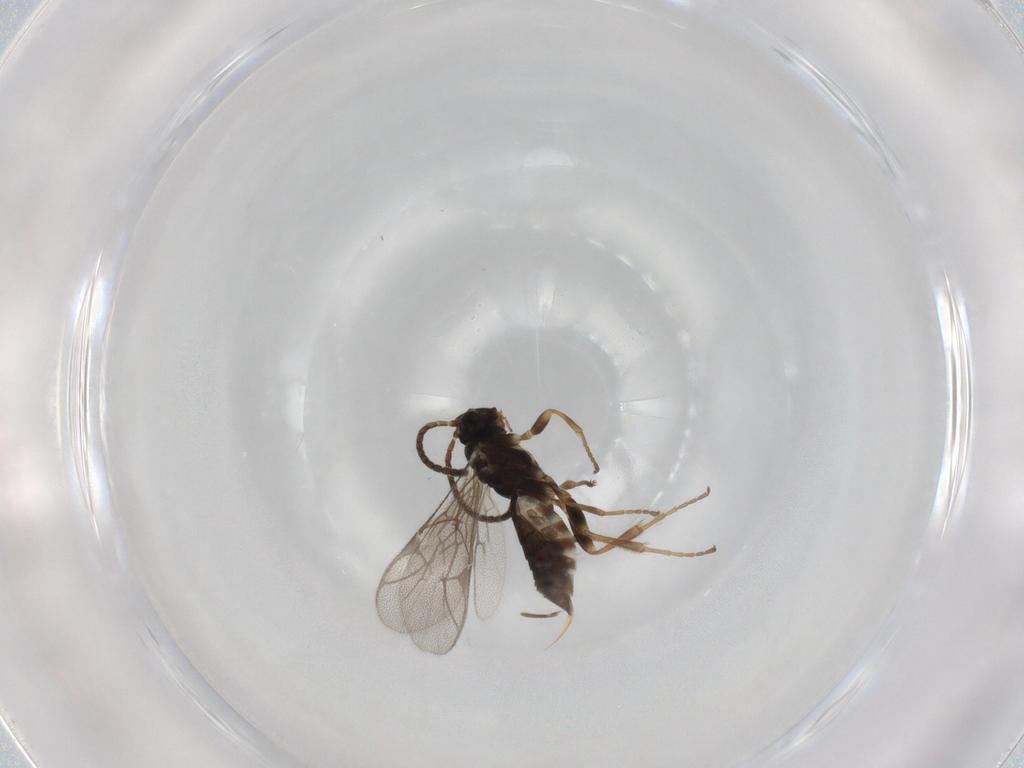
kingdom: Animalia
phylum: Arthropoda
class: Insecta
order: Hymenoptera
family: Ichneumonidae
